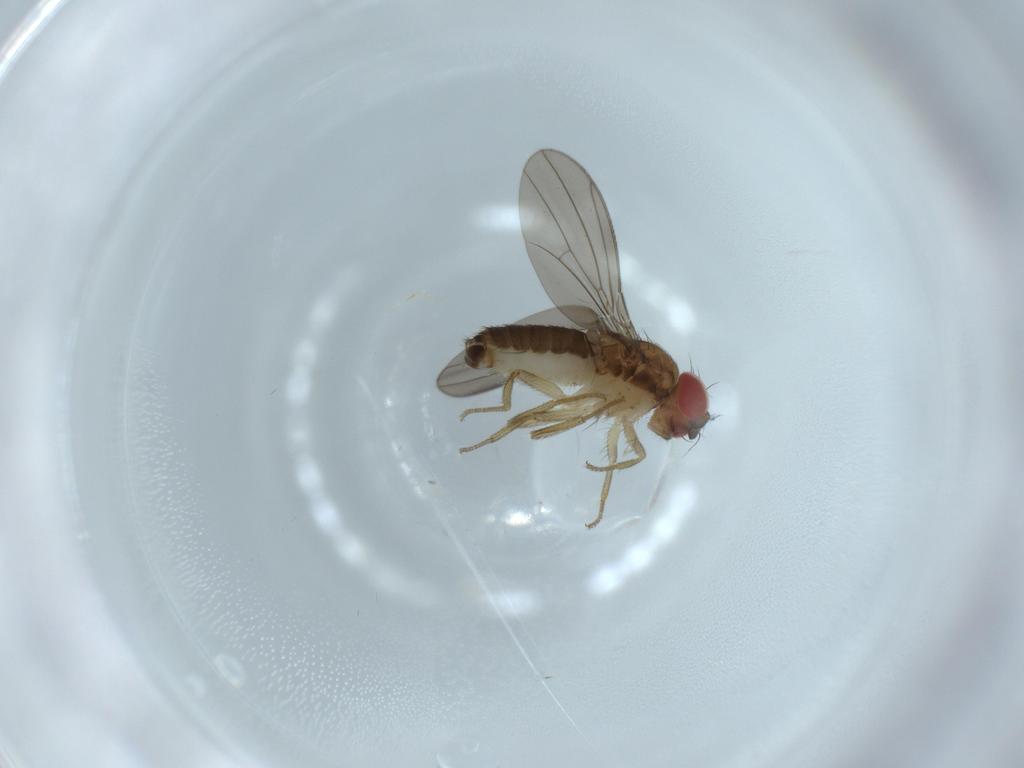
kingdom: Animalia
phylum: Arthropoda
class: Insecta
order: Diptera
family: Drosophilidae
